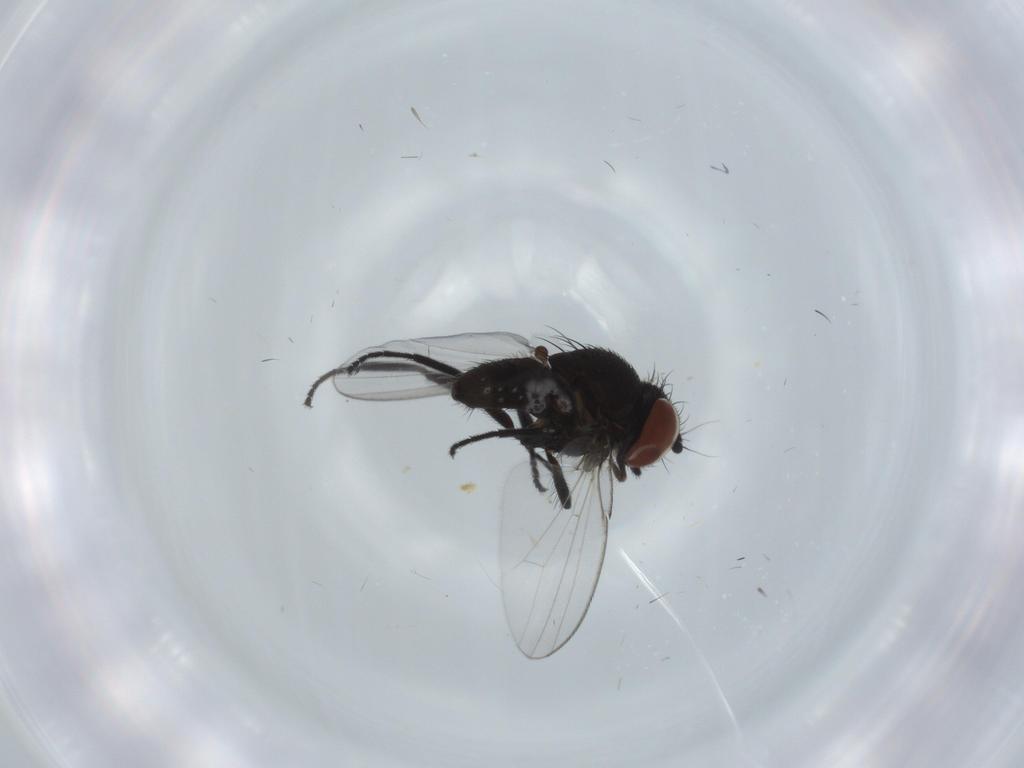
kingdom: Animalia
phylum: Arthropoda
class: Insecta
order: Diptera
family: Milichiidae
